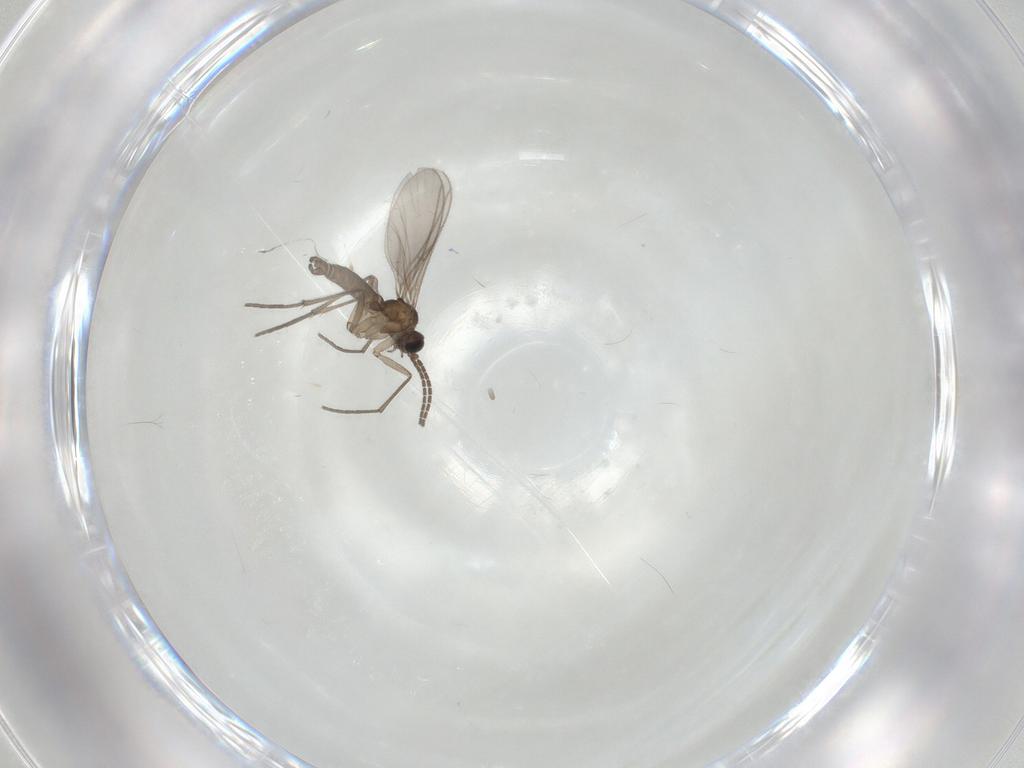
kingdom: Animalia
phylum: Arthropoda
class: Insecta
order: Diptera
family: Sciaridae
